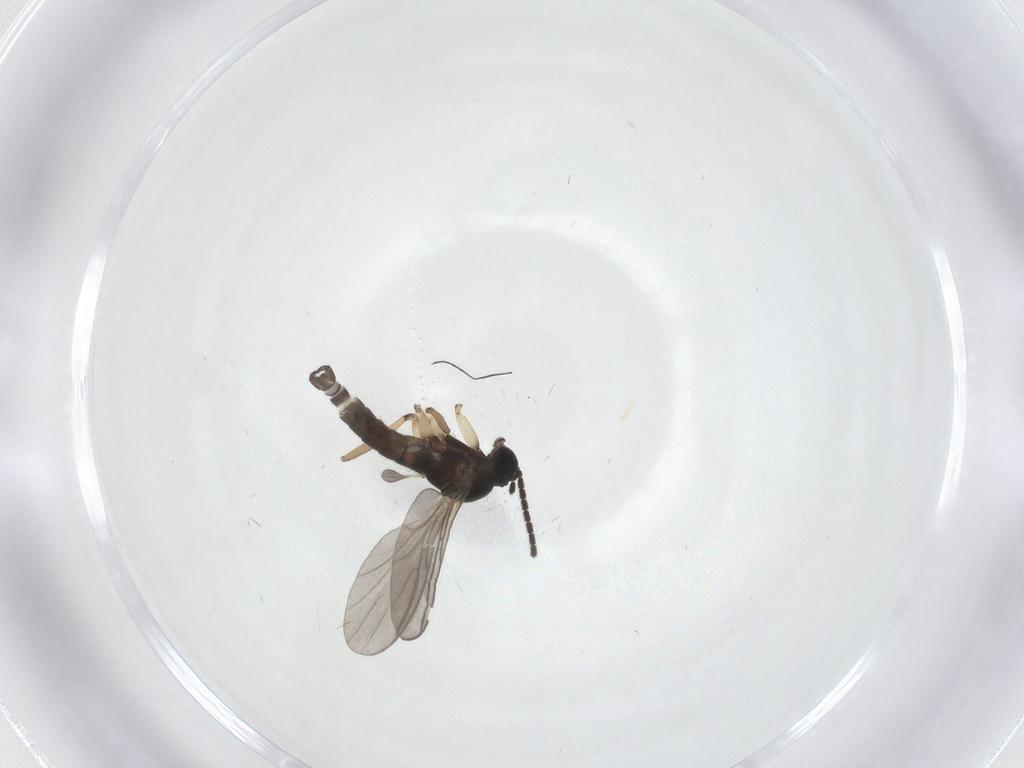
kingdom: Animalia
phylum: Arthropoda
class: Insecta
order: Diptera
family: Sciaridae
